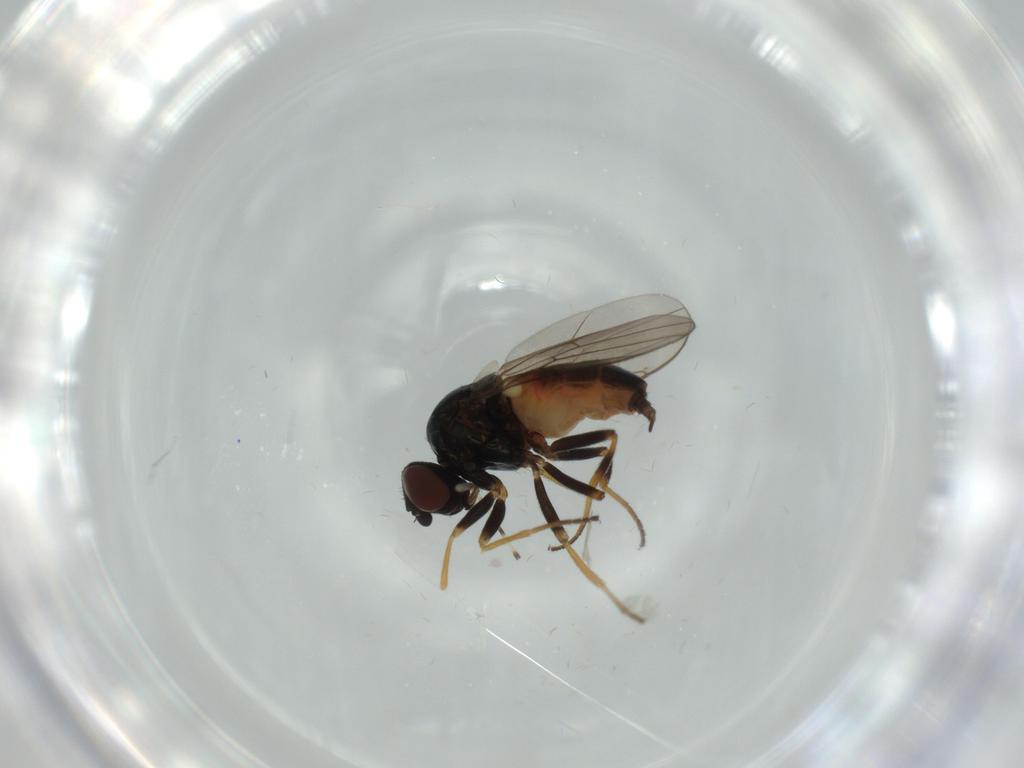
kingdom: Animalia
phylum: Arthropoda
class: Insecta
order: Diptera
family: Chloropidae
